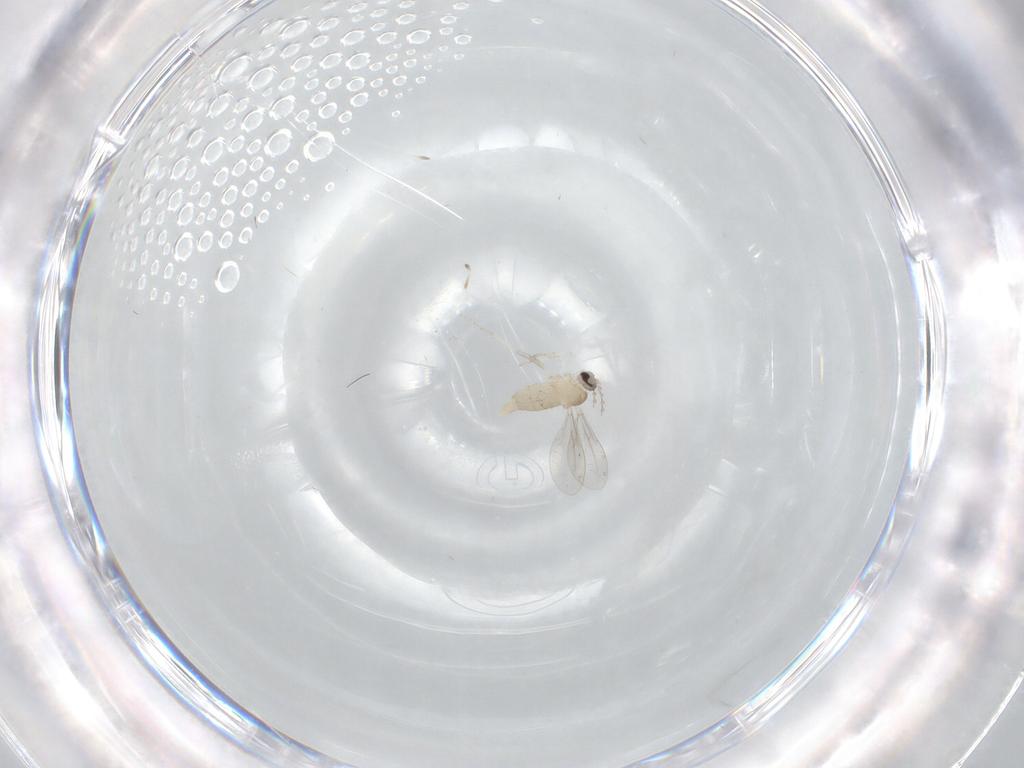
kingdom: Animalia
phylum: Arthropoda
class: Insecta
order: Diptera
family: Cecidomyiidae
